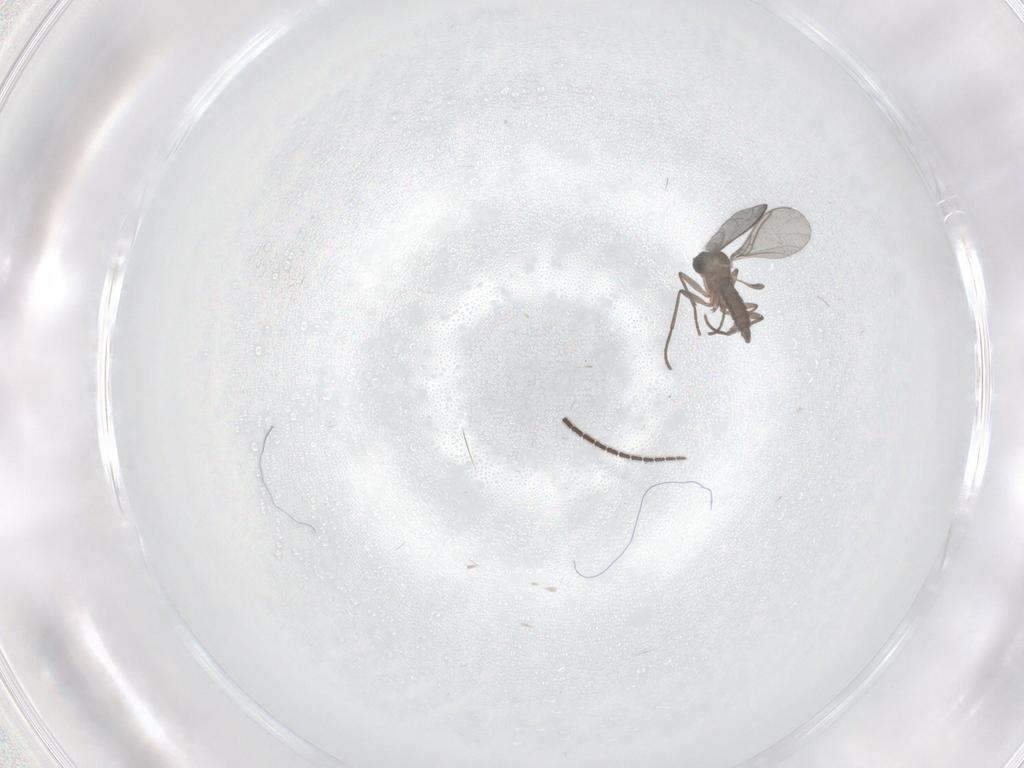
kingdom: Animalia
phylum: Arthropoda
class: Insecta
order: Diptera
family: Sciaridae
